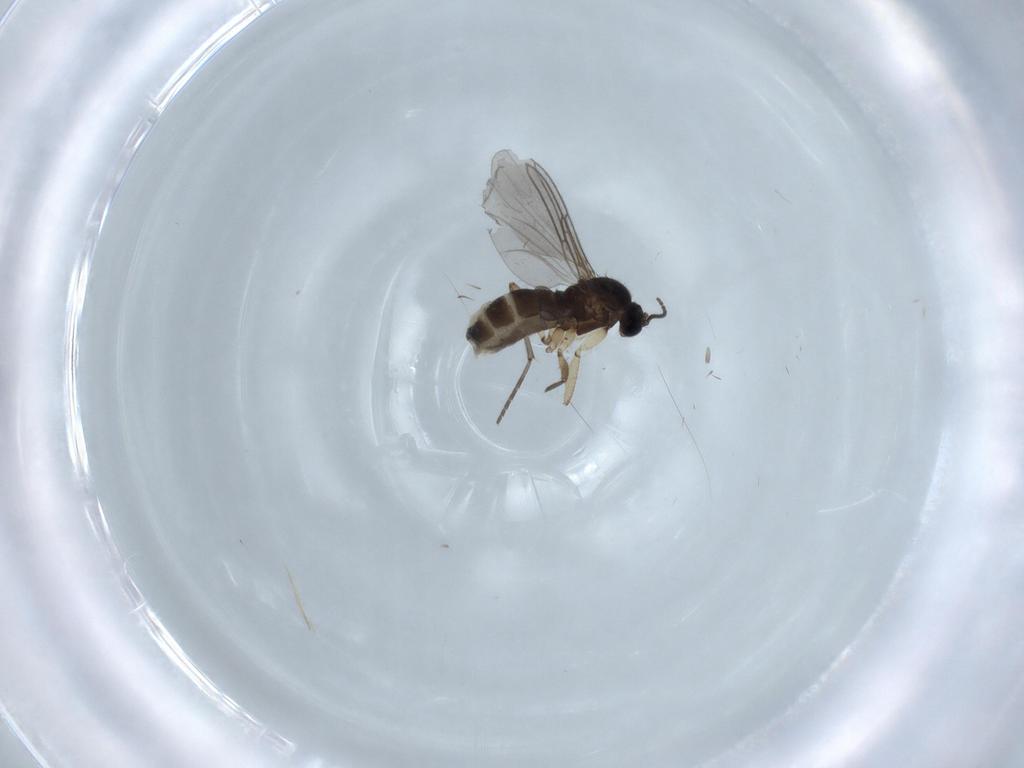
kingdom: Animalia
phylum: Arthropoda
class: Insecta
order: Diptera
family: Sciaridae
